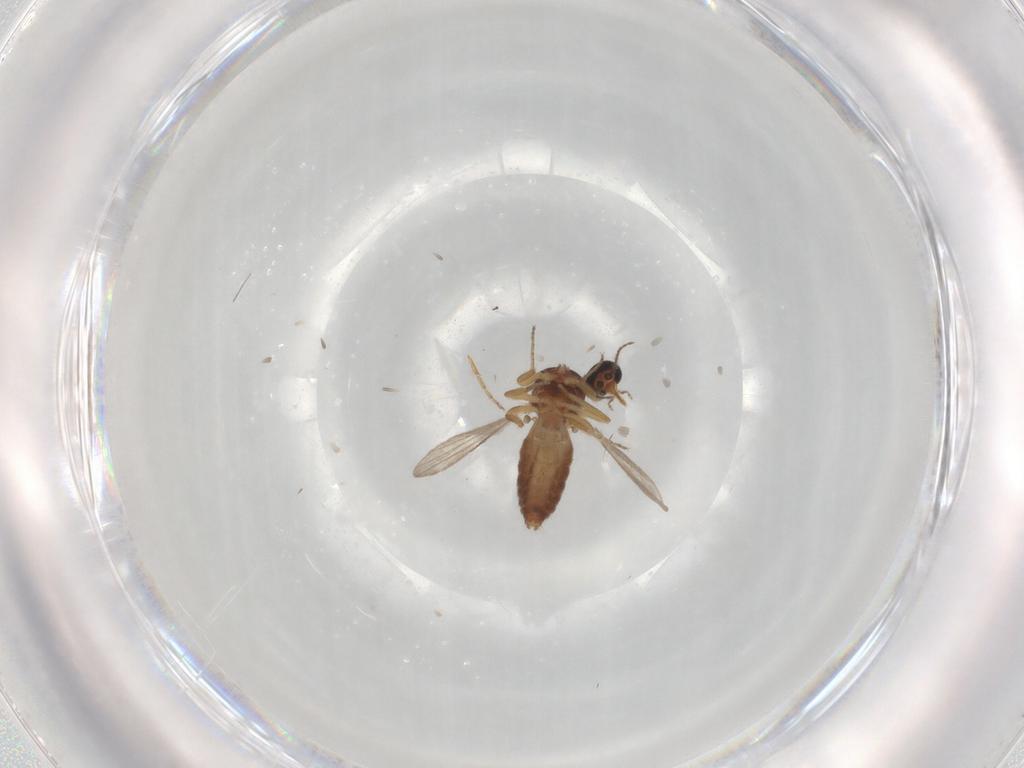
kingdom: Animalia
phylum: Arthropoda
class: Insecta
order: Diptera
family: Ceratopogonidae
